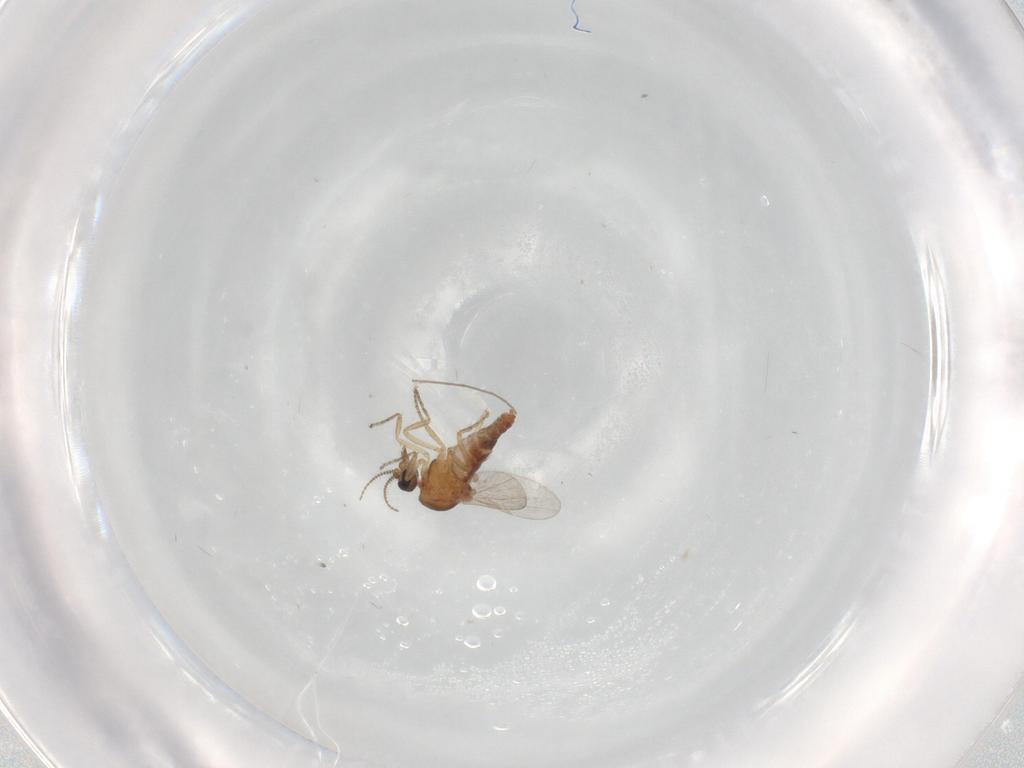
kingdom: Animalia
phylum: Arthropoda
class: Insecta
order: Diptera
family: Ceratopogonidae
